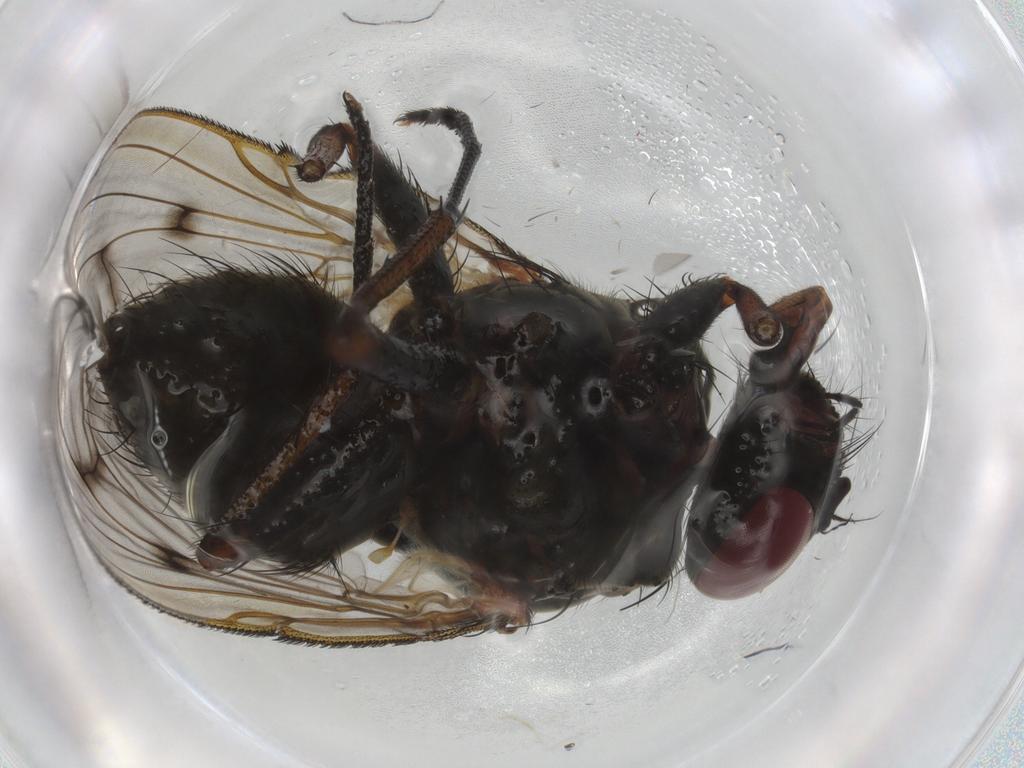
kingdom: Animalia
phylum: Arthropoda
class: Insecta
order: Diptera
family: Muscidae
